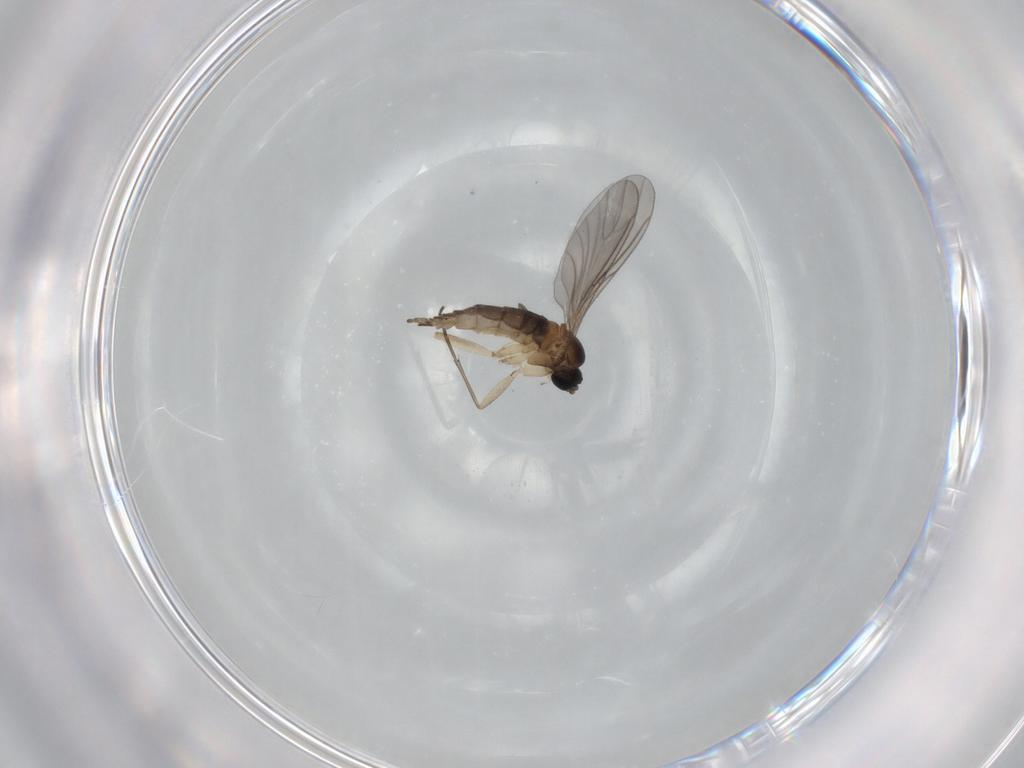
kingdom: Animalia
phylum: Arthropoda
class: Insecta
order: Diptera
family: Sciaridae
